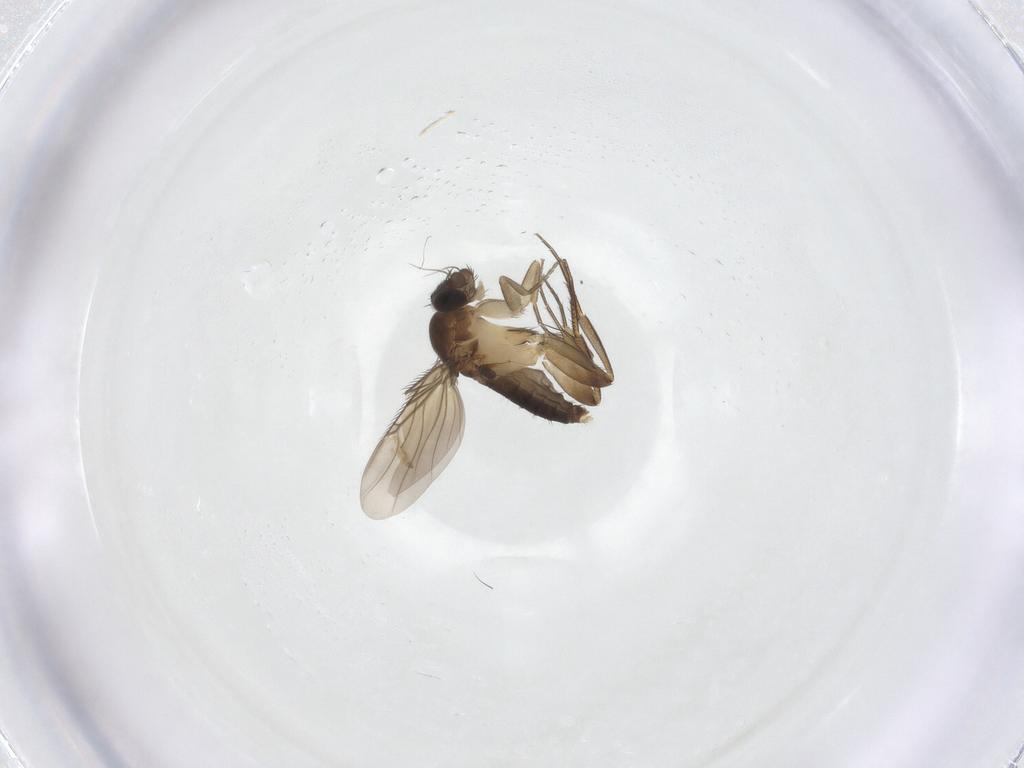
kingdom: Animalia
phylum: Arthropoda
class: Insecta
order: Diptera
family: Phoridae
